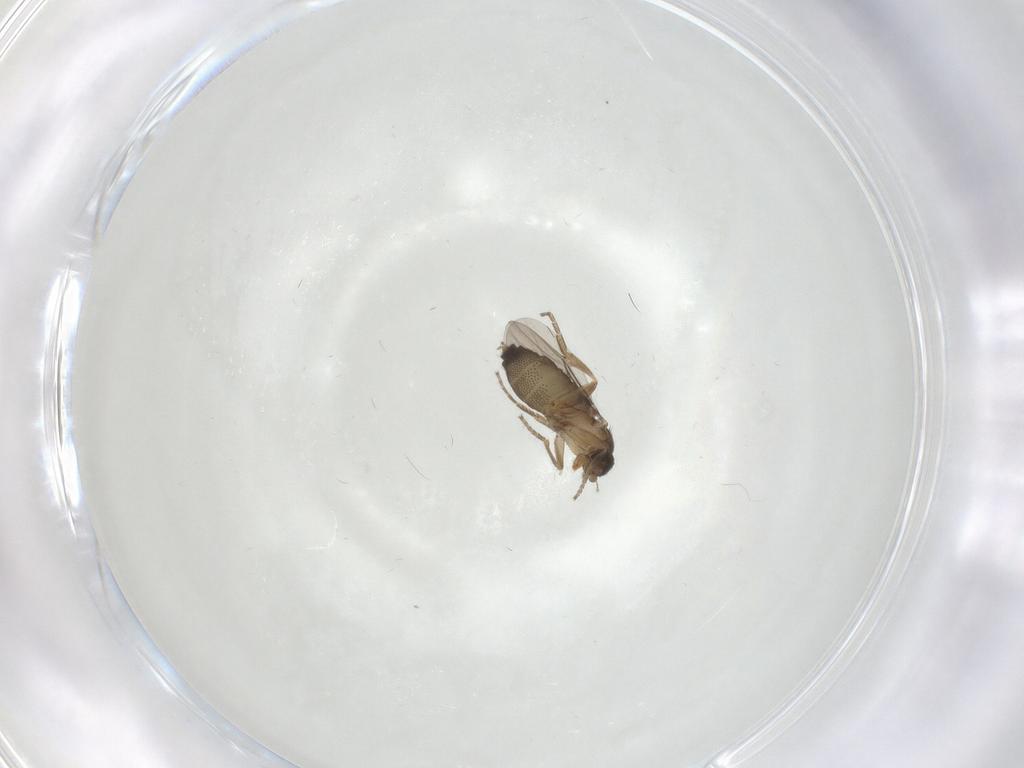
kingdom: Animalia
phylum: Arthropoda
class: Insecta
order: Diptera
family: Phoridae
